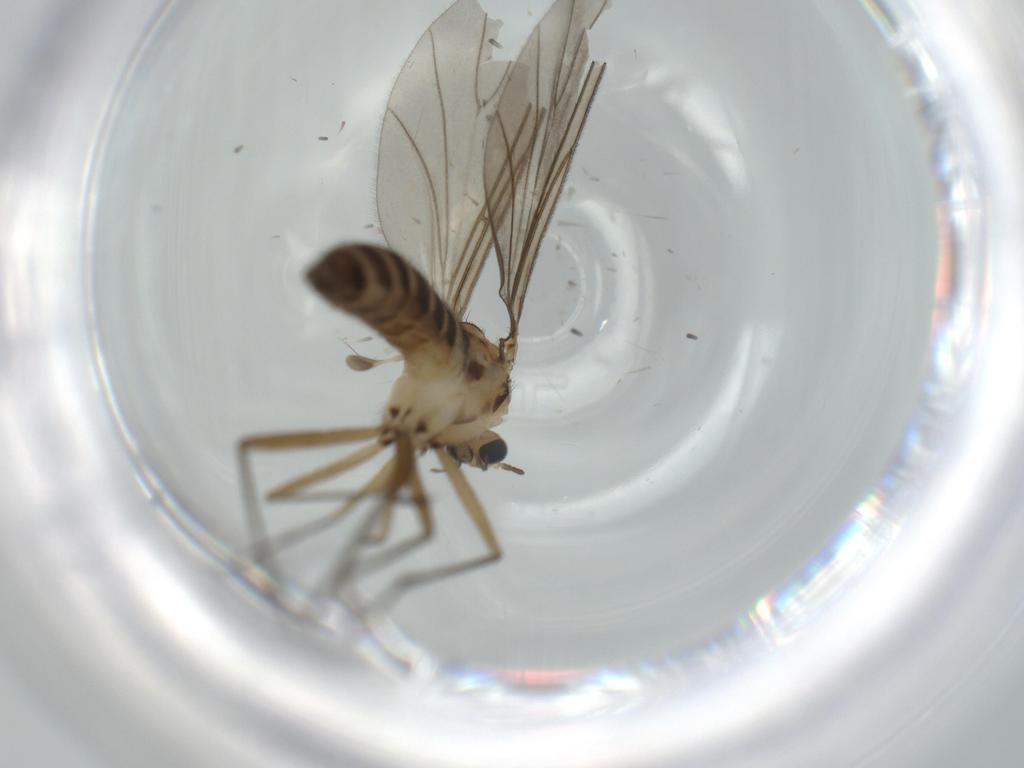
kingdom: Animalia
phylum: Arthropoda
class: Insecta
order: Diptera
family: Sciaridae
